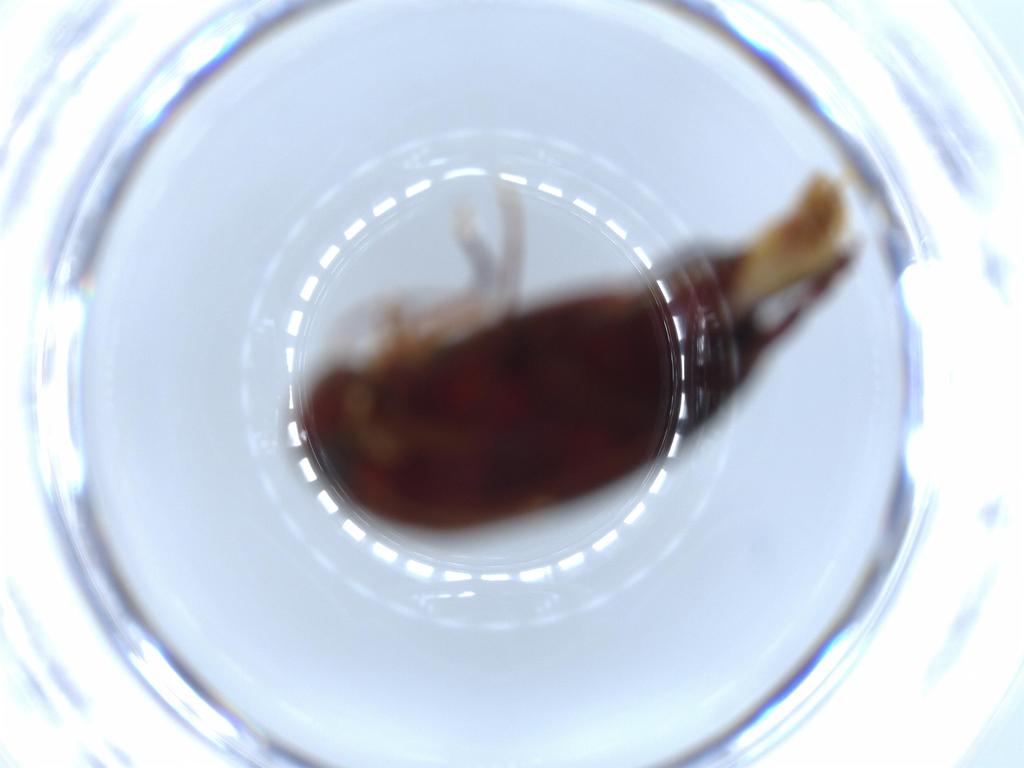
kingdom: Animalia
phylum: Arthropoda
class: Insecta
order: Coleoptera
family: Mordellidae
